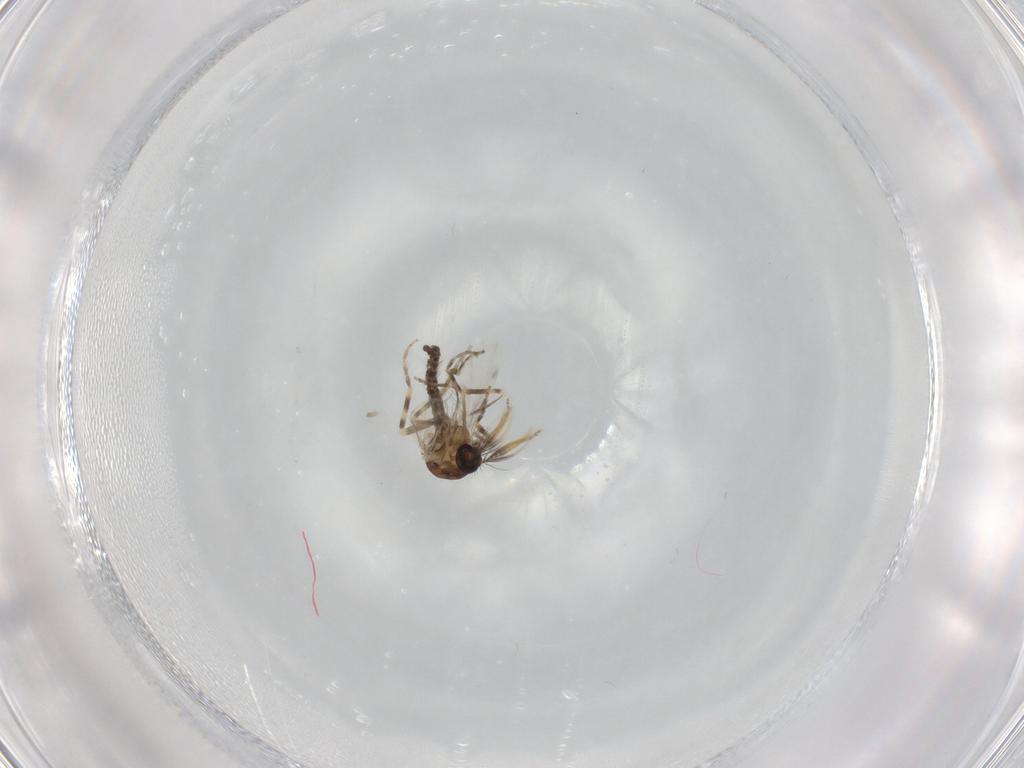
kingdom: Animalia
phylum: Arthropoda
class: Insecta
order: Diptera
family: Ceratopogonidae
